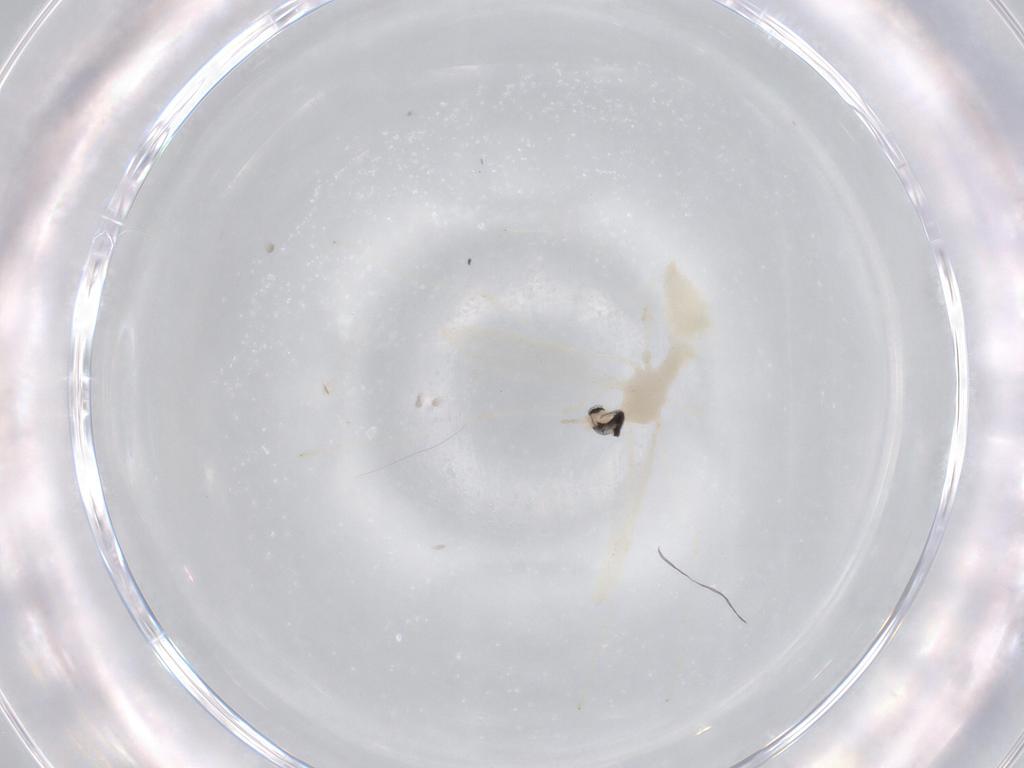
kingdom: Animalia
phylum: Arthropoda
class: Insecta
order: Diptera
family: Cecidomyiidae
